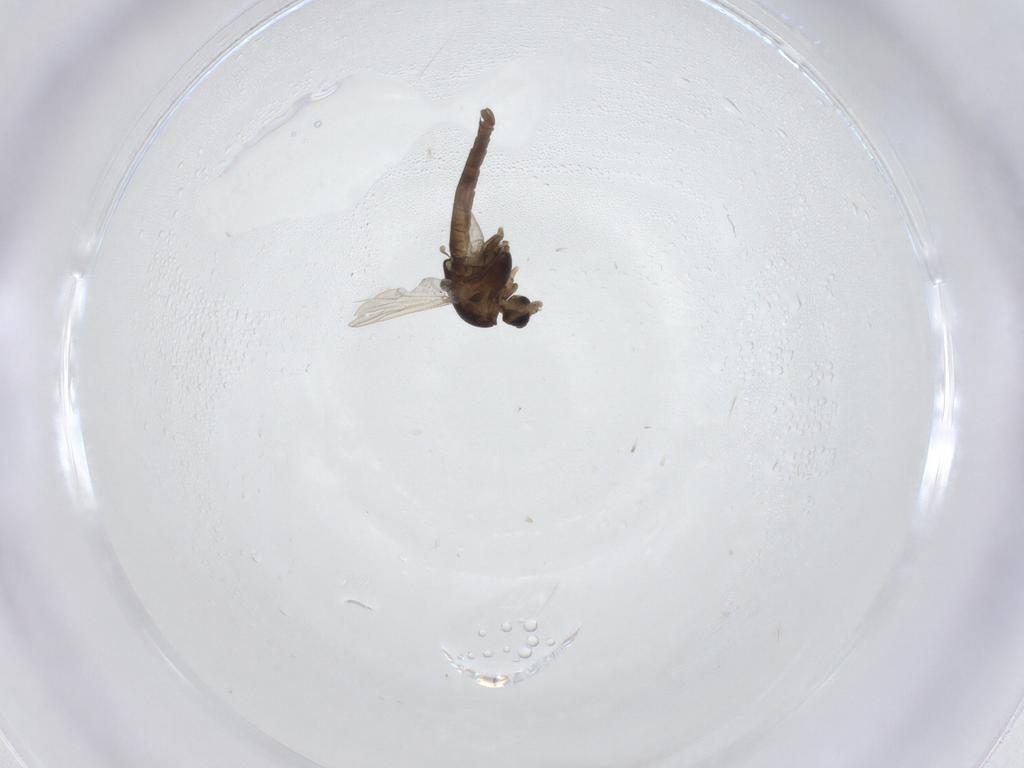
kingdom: Animalia
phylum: Arthropoda
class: Insecta
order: Diptera
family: Chironomidae
